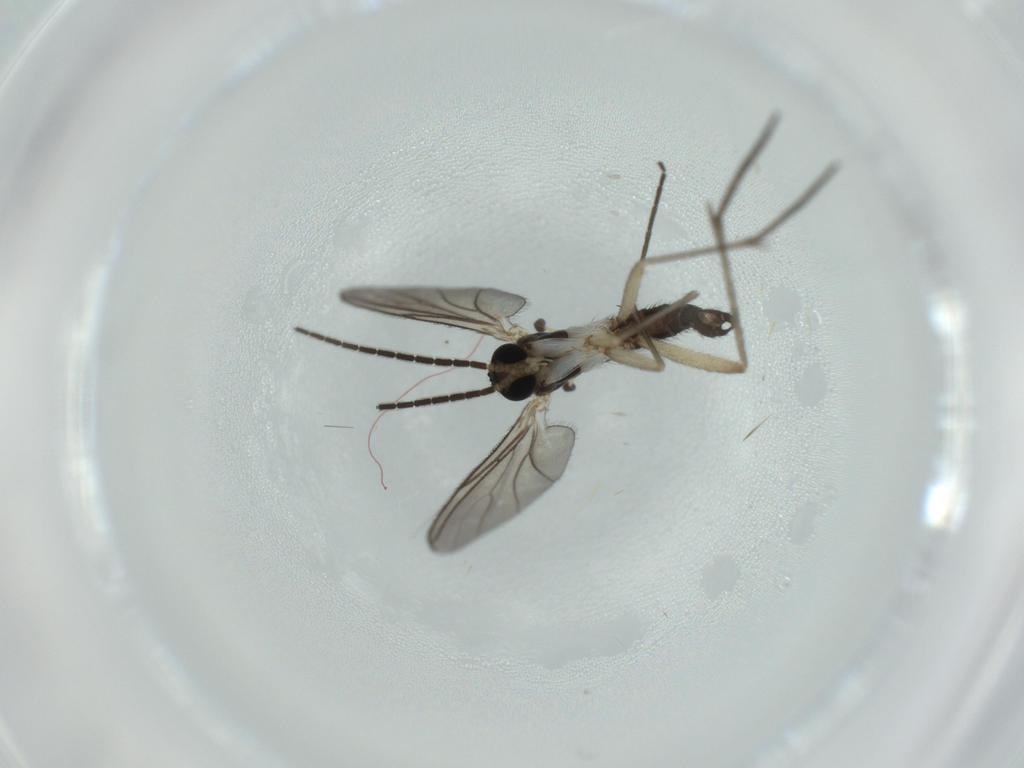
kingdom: Animalia
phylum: Arthropoda
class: Insecta
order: Diptera
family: Sciaridae
